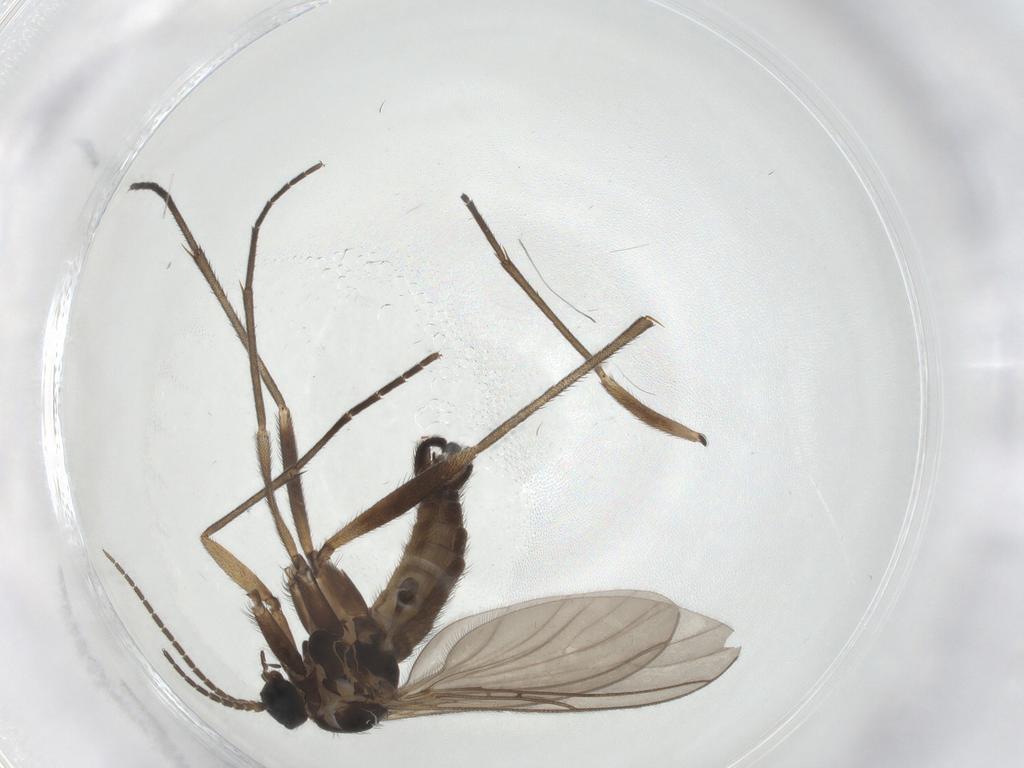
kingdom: Animalia
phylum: Arthropoda
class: Insecta
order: Diptera
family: Sciaridae
